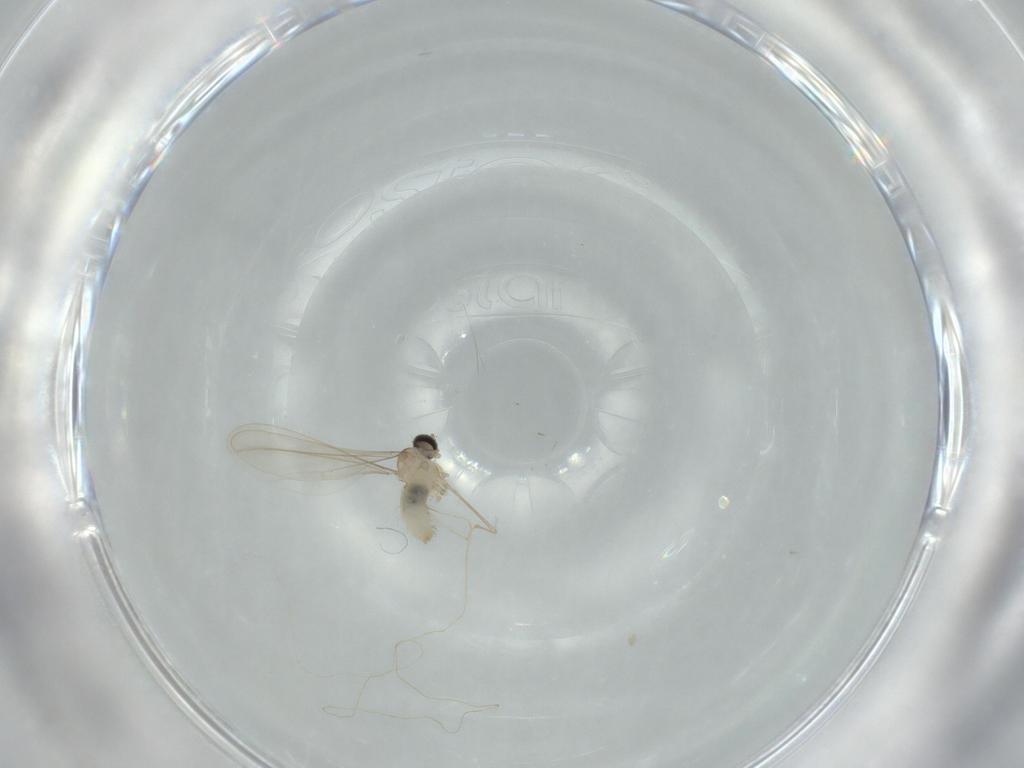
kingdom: Animalia
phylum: Arthropoda
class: Insecta
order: Diptera
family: Cecidomyiidae
